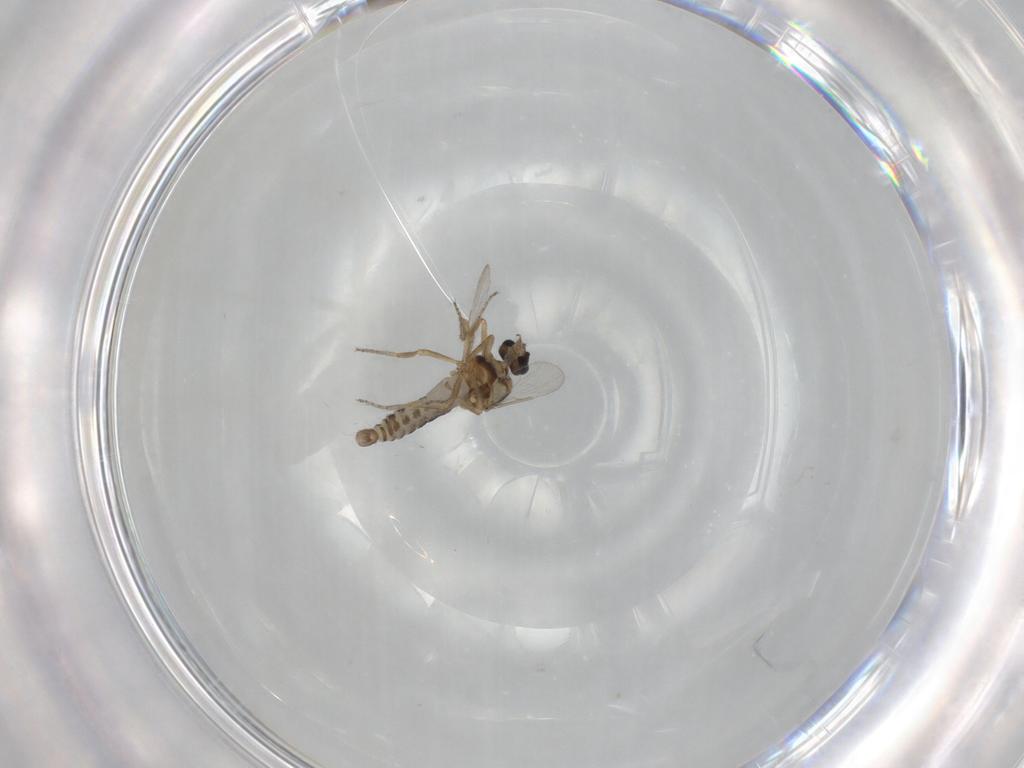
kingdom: Animalia
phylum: Arthropoda
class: Insecta
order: Diptera
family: Ceratopogonidae
